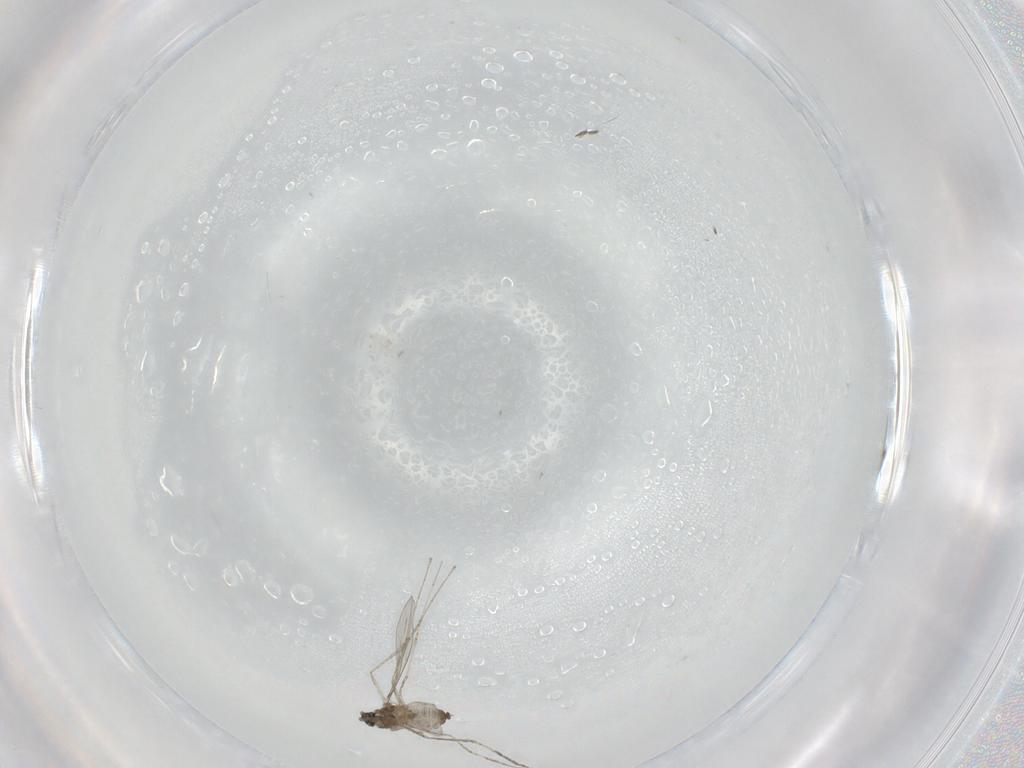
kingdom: Animalia
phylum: Arthropoda
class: Insecta
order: Diptera
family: Cecidomyiidae
